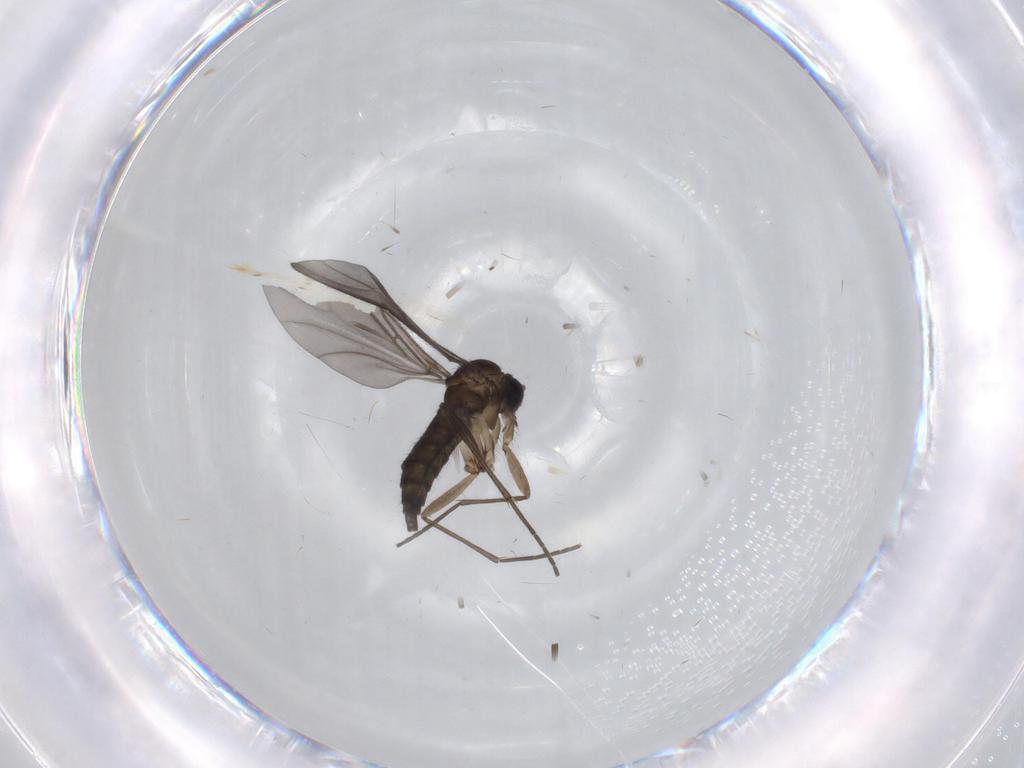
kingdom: Animalia
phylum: Arthropoda
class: Insecta
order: Diptera
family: Sciaridae
